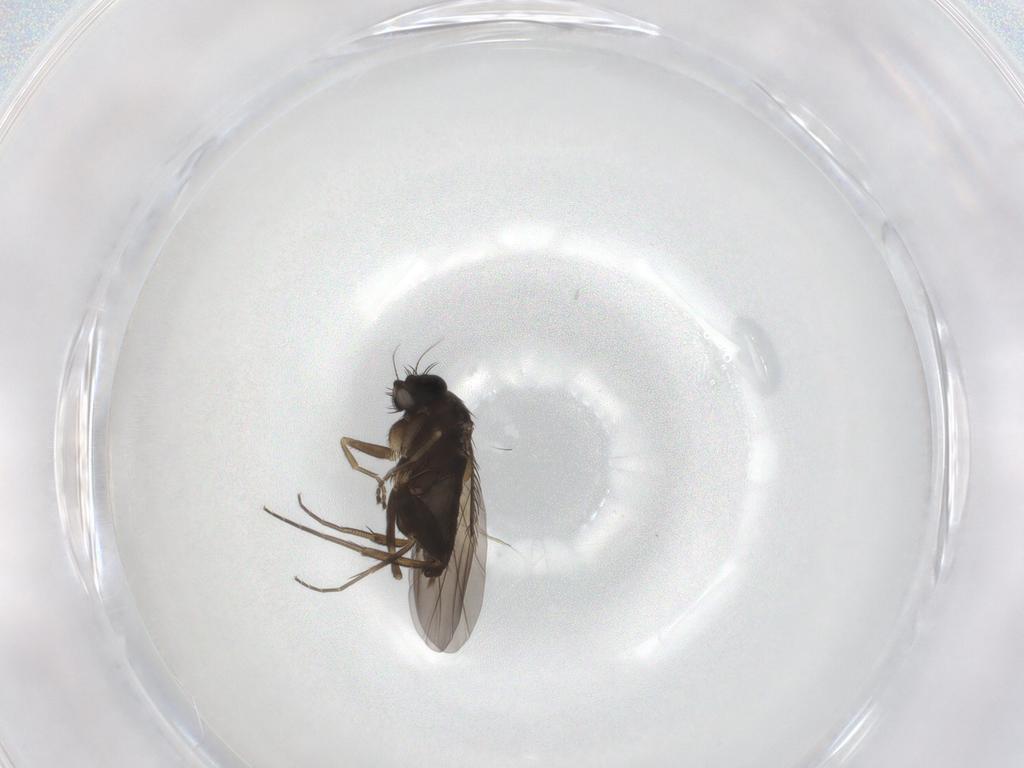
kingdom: Animalia
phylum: Arthropoda
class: Insecta
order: Diptera
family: Phoridae
